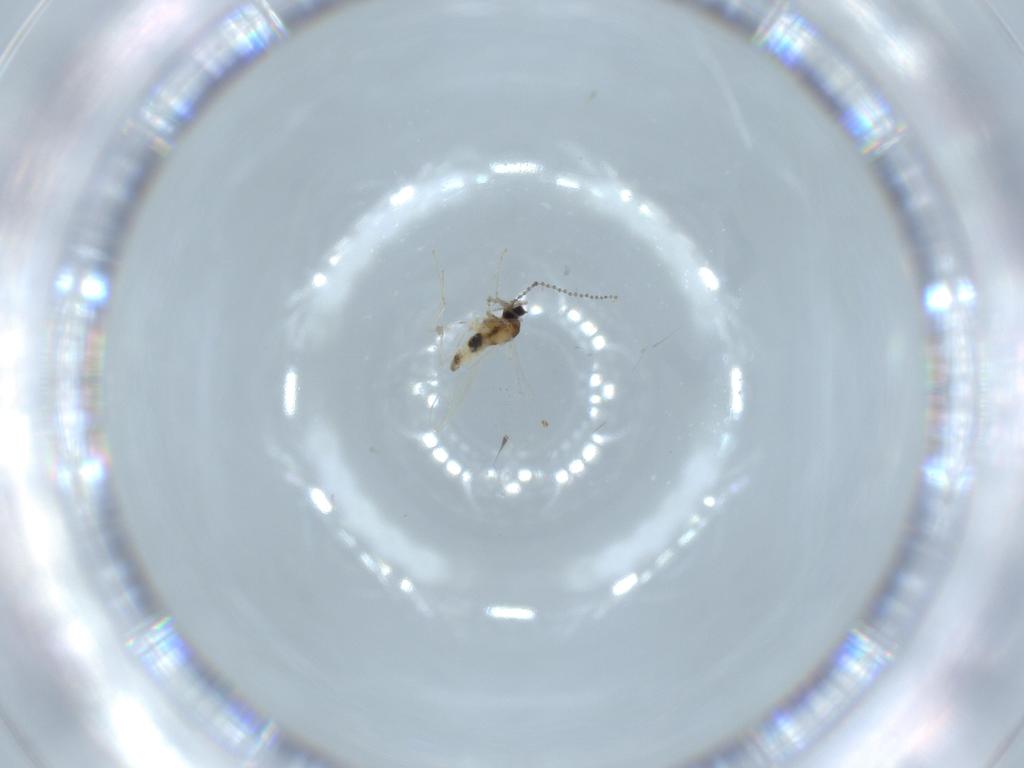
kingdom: Animalia
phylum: Arthropoda
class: Insecta
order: Diptera
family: Cecidomyiidae
